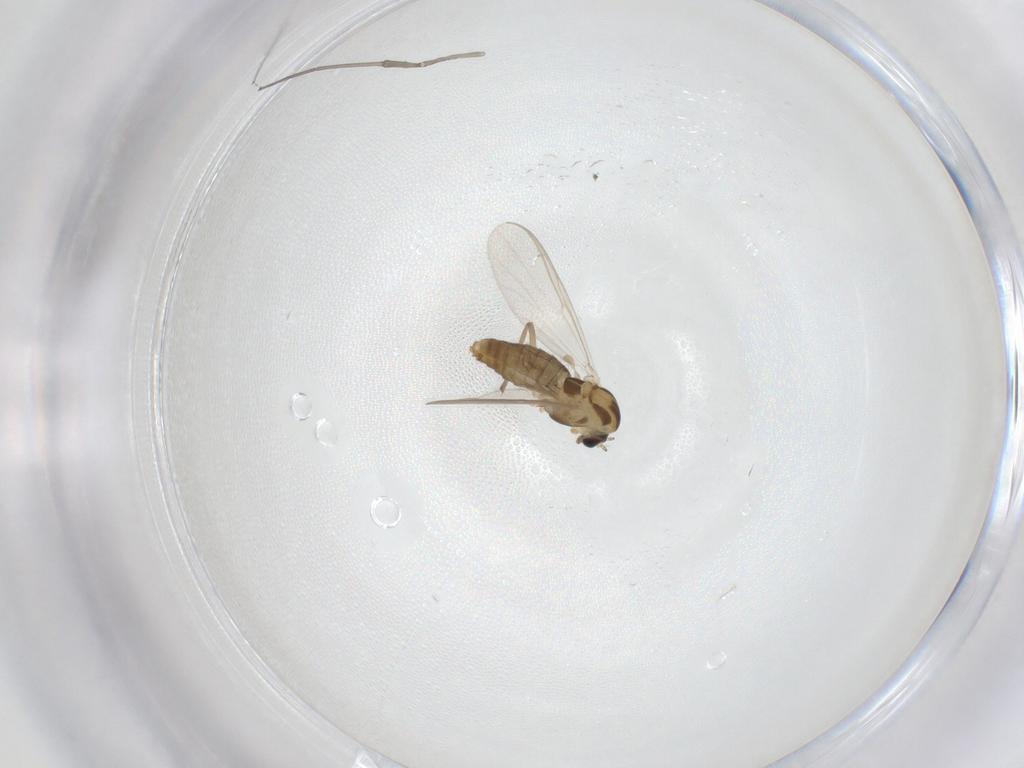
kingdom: Animalia
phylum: Arthropoda
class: Insecta
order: Diptera
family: Chironomidae
